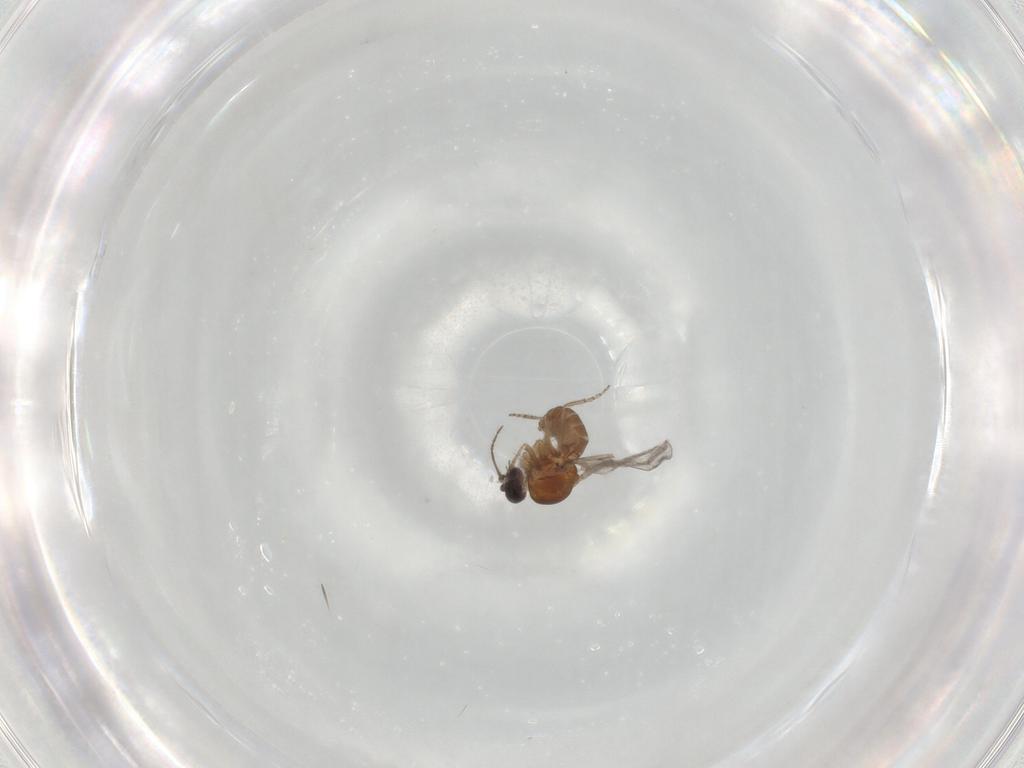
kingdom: Animalia
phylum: Arthropoda
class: Insecta
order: Diptera
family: Ceratopogonidae
